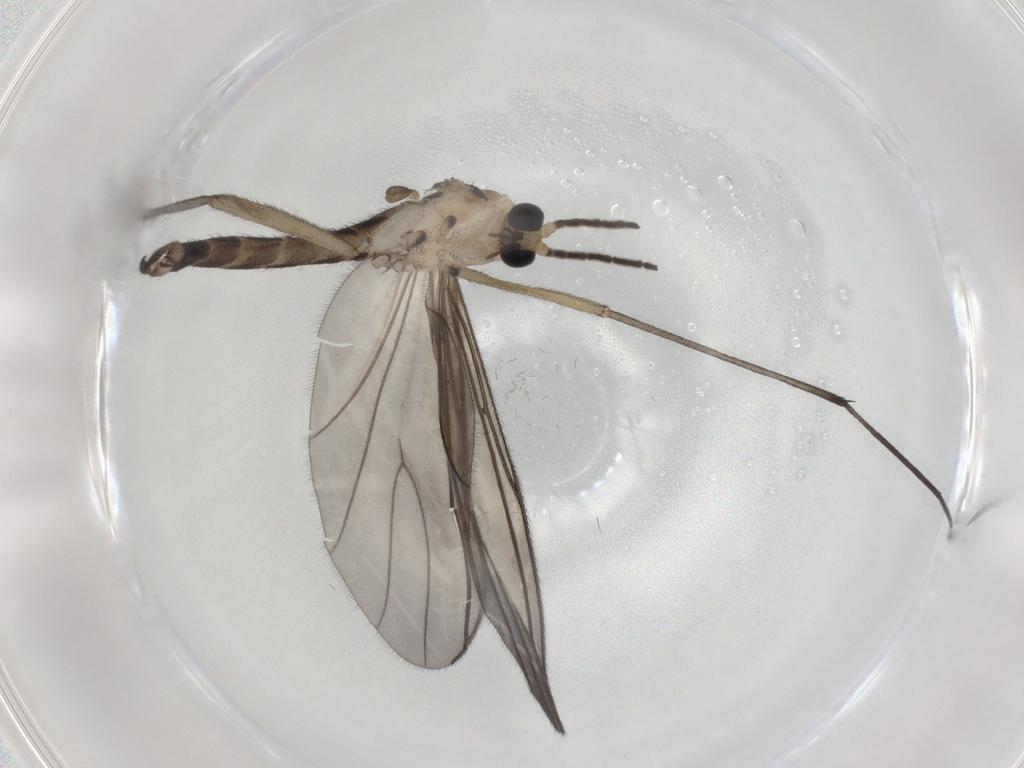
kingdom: Animalia
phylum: Arthropoda
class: Insecta
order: Diptera
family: Sciaridae
